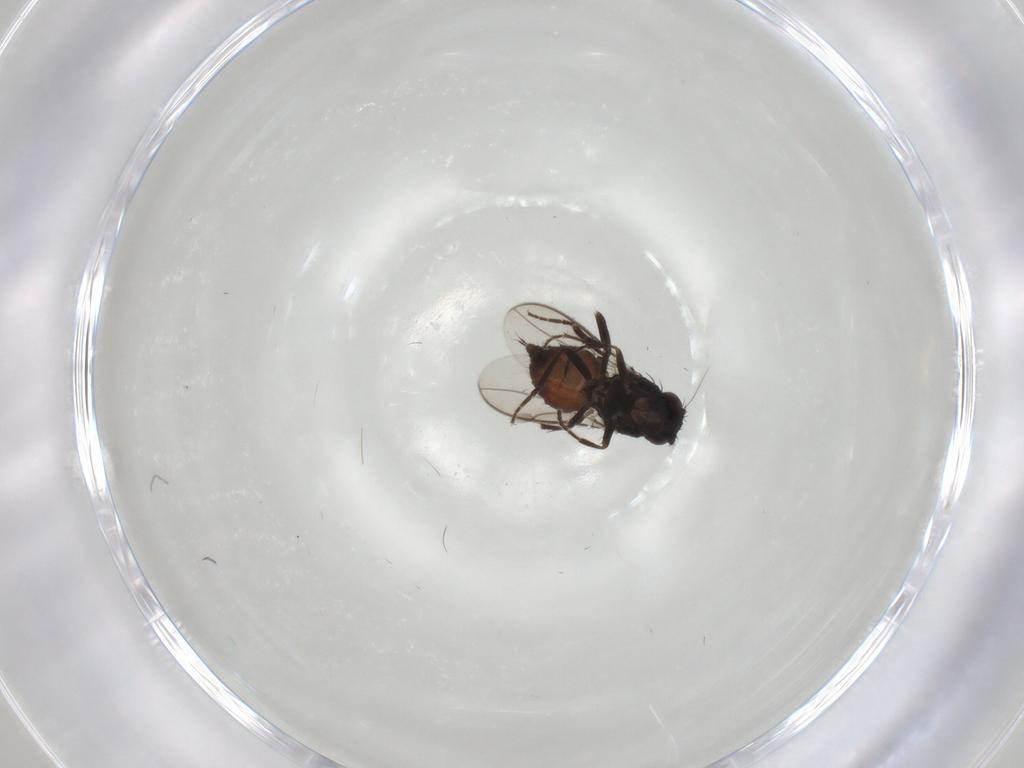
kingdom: Animalia
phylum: Arthropoda
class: Insecta
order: Diptera
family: Sphaeroceridae
